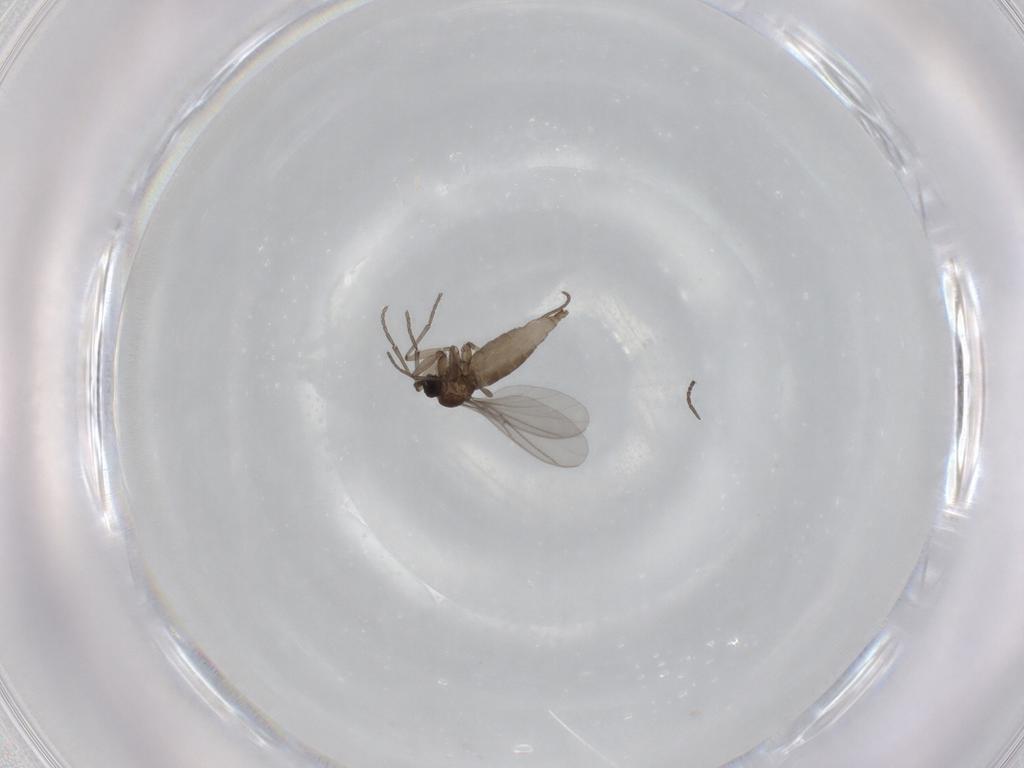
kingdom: Animalia
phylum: Arthropoda
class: Insecta
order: Diptera
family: Sciaridae
